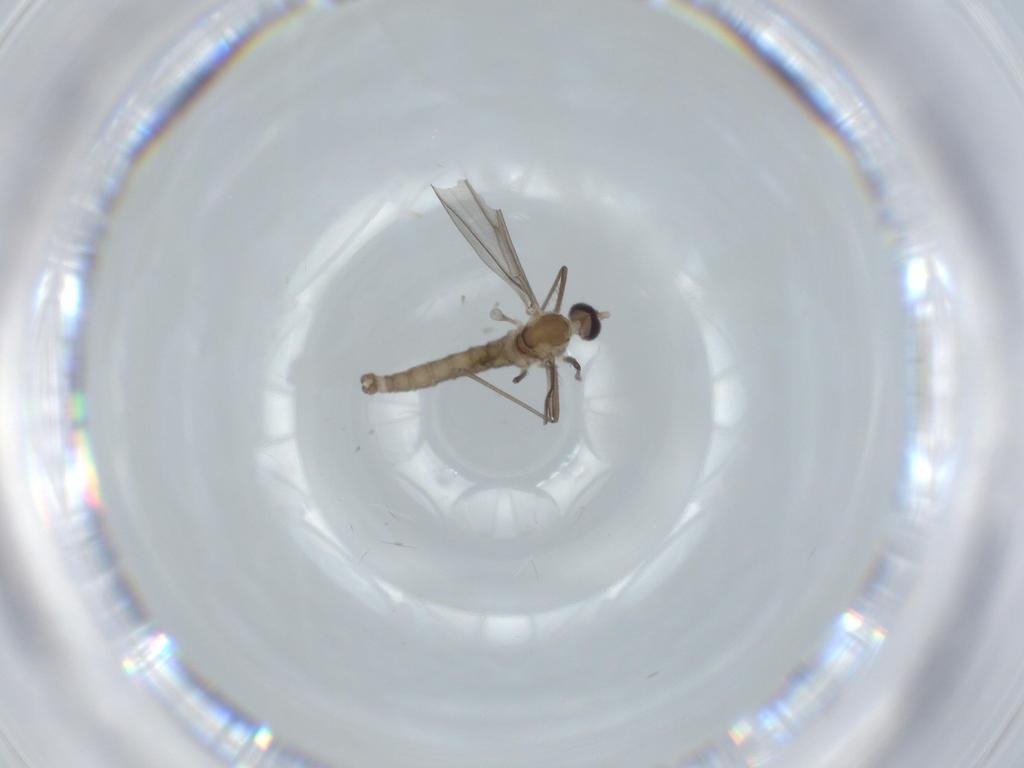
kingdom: Animalia
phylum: Arthropoda
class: Insecta
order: Diptera
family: Cecidomyiidae
